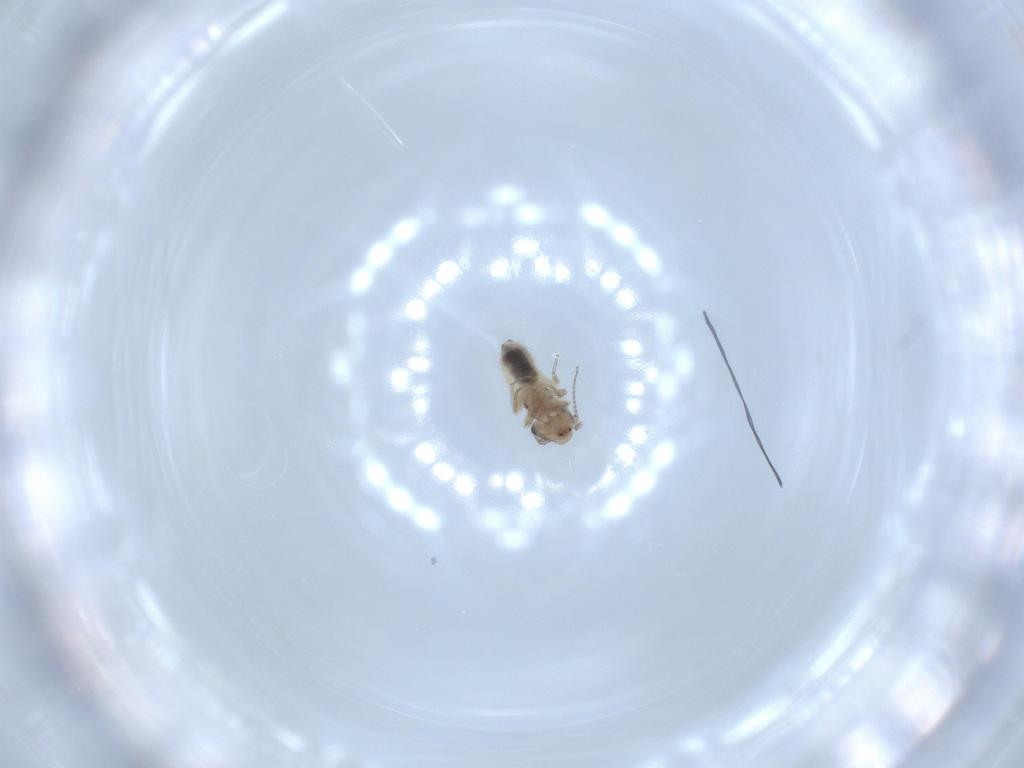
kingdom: Animalia
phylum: Arthropoda
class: Insecta
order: Psocodea
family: Lepidopsocidae
